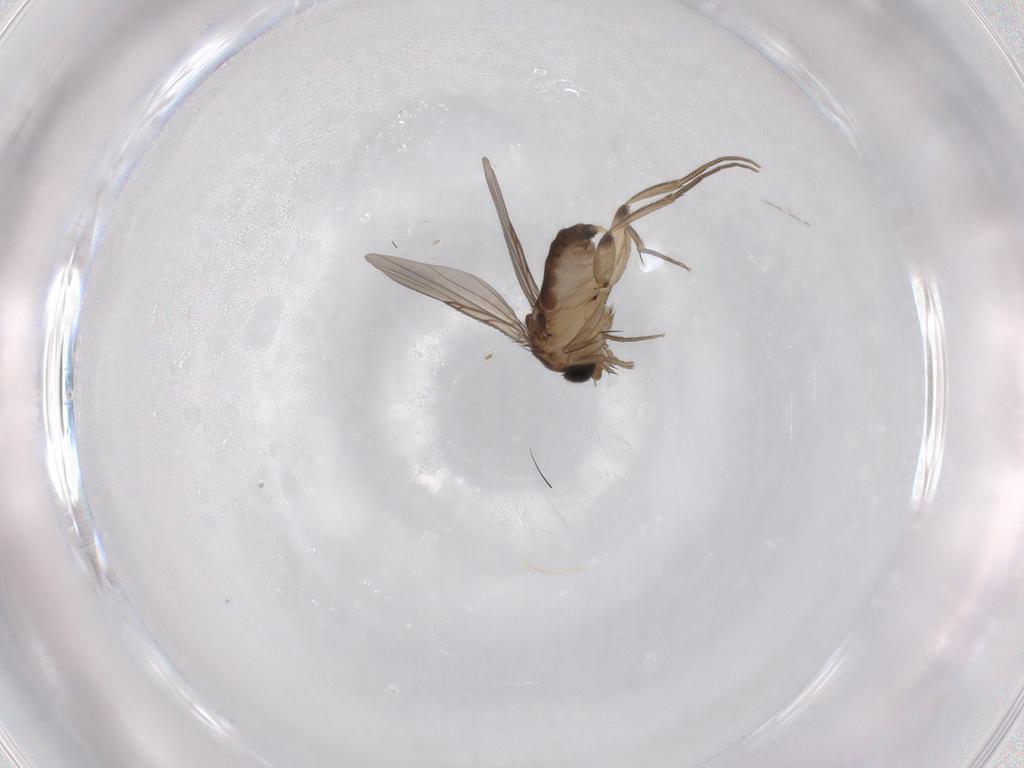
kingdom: Animalia
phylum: Arthropoda
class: Insecta
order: Diptera
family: Phoridae
